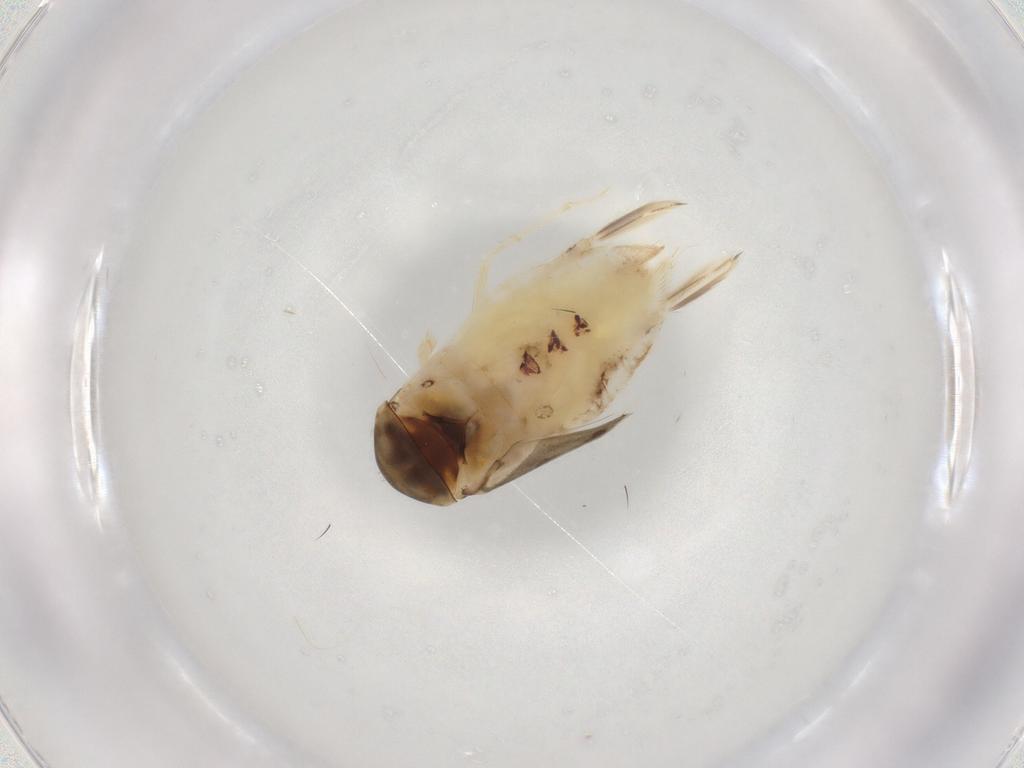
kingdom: Animalia
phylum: Arthropoda
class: Insecta
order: Hemiptera
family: Corixidae
